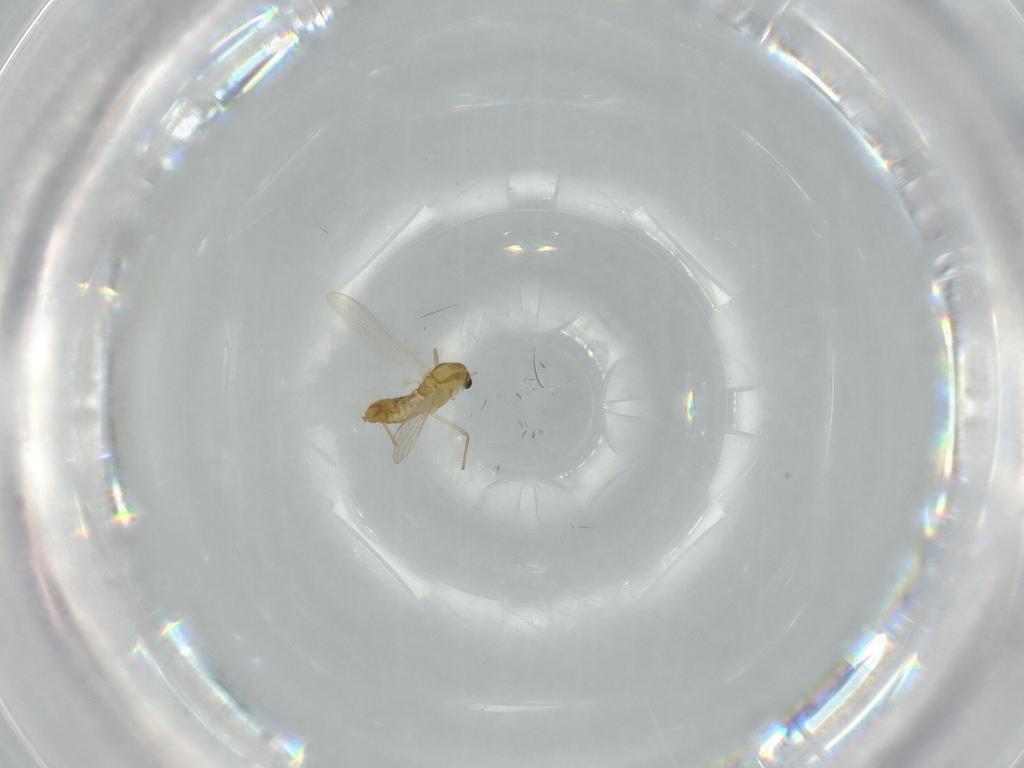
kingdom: Animalia
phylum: Arthropoda
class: Insecta
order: Diptera
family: Chironomidae
